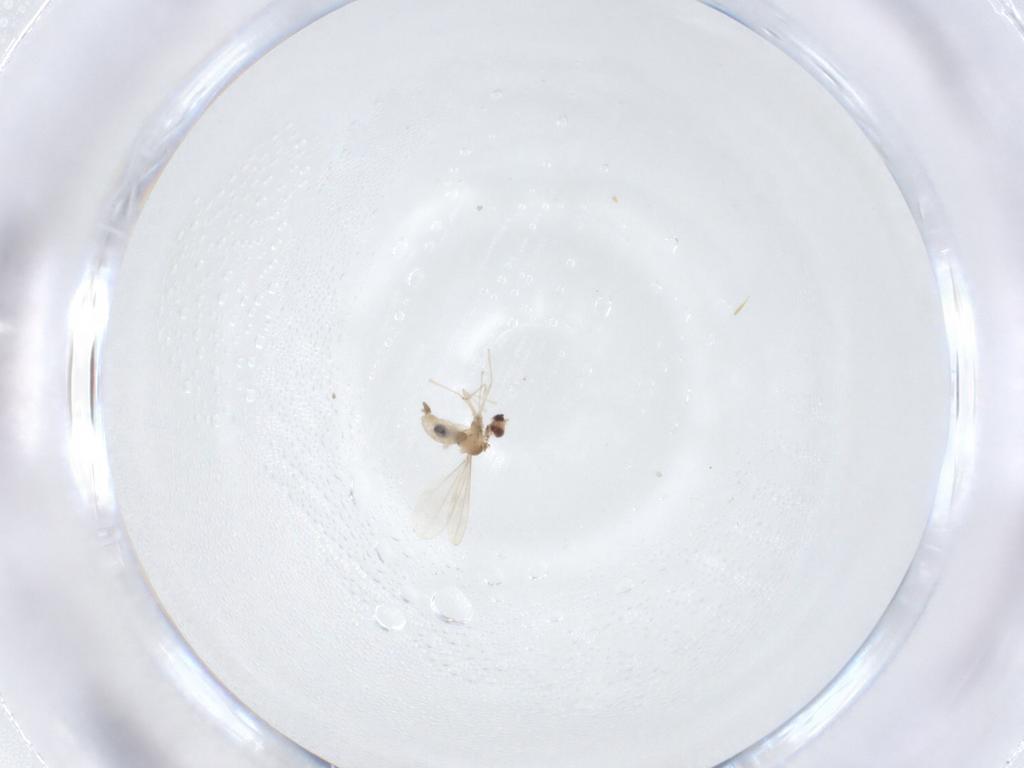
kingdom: Animalia
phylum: Arthropoda
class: Insecta
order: Diptera
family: Cecidomyiidae
